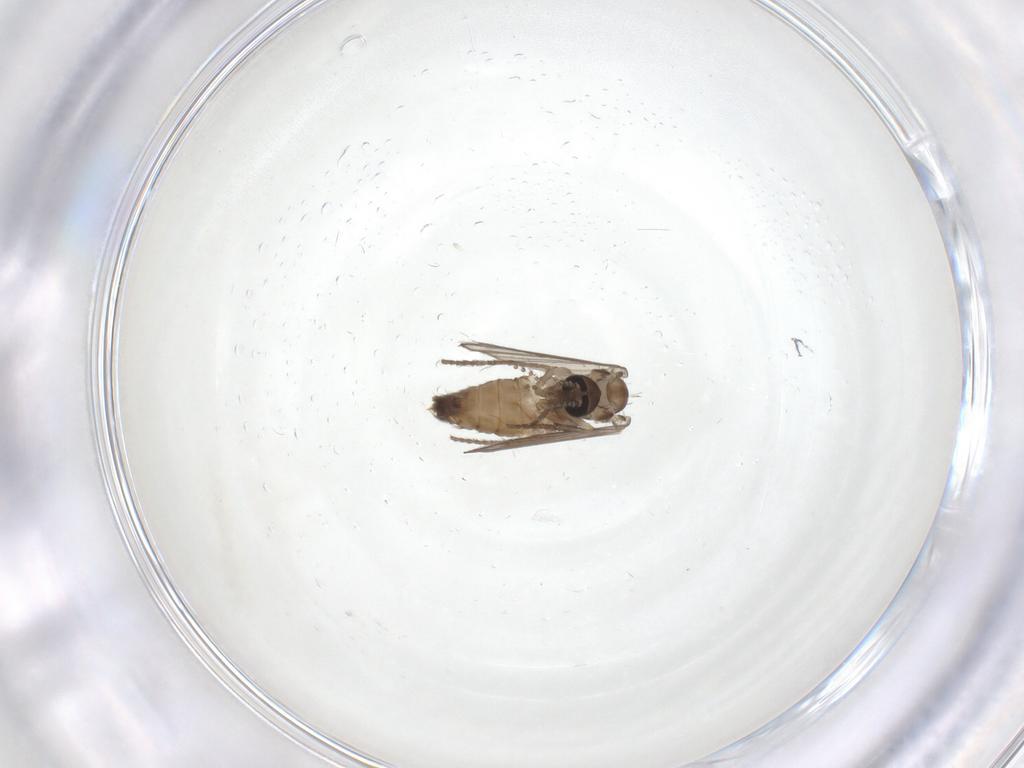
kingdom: Animalia
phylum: Arthropoda
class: Insecta
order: Diptera
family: Psychodidae
